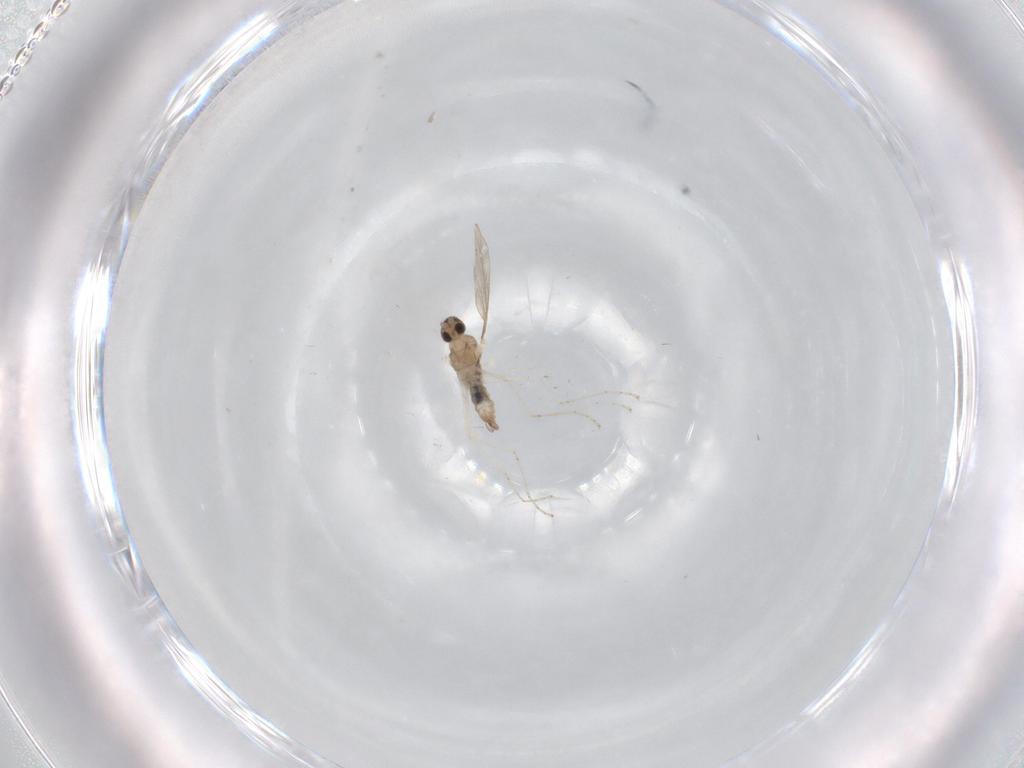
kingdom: Animalia
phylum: Arthropoda
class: Insecta
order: Diptera
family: Cecidomyiidae
